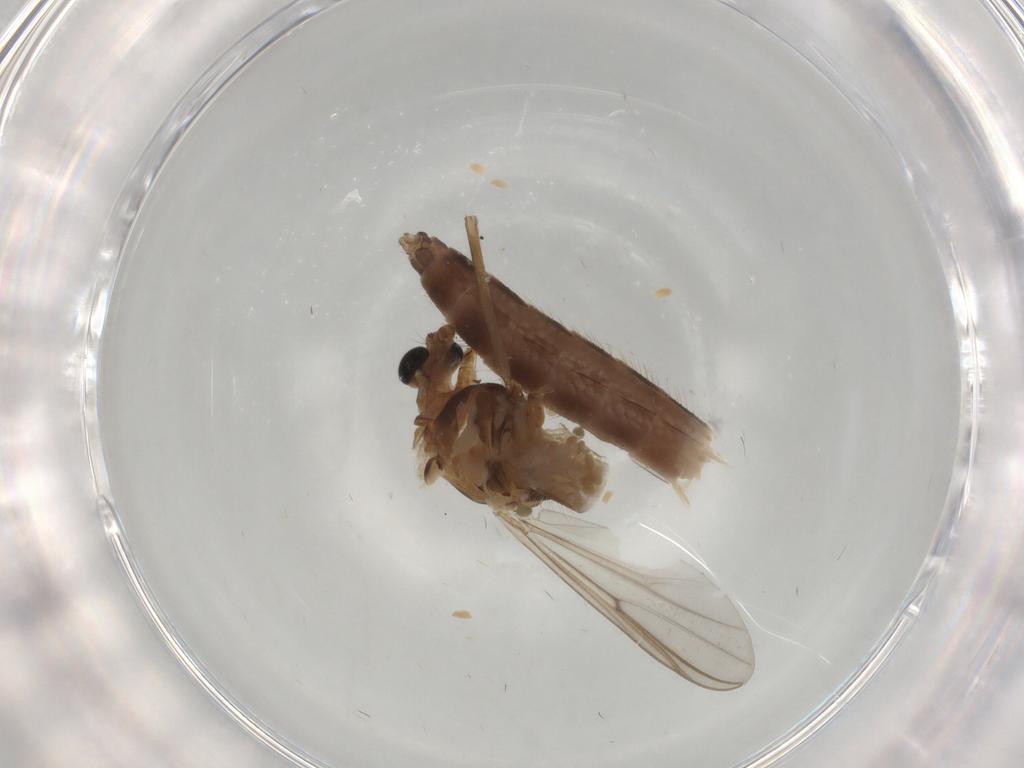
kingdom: Animalia
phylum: Arthropoda
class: Insecta
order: Diptera
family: Chironomidae
